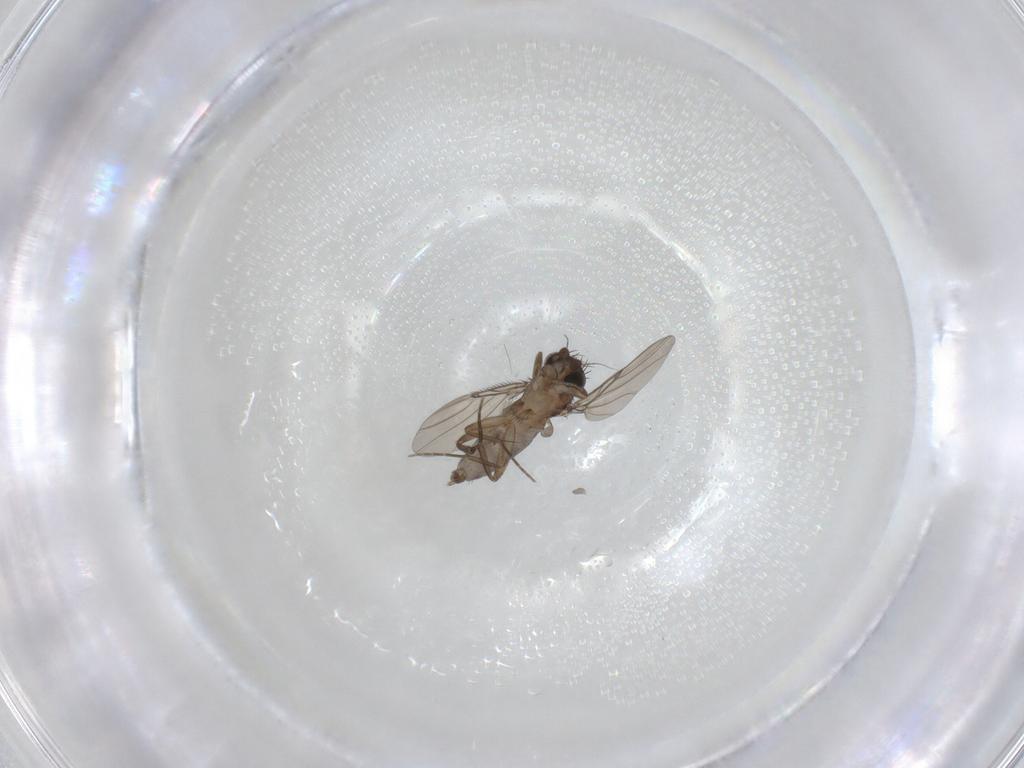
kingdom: Animalia
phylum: Arthropoda
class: Insecta
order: Diptera
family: Phoridae
